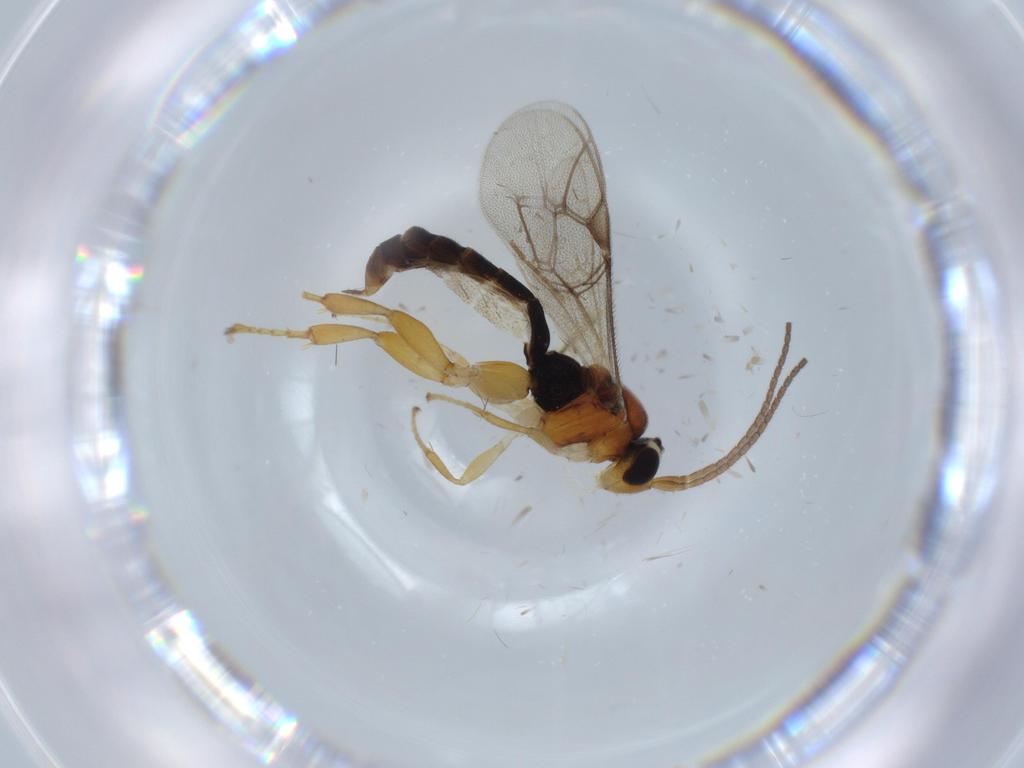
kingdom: Animalia
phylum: Arthropoda
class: Insecta
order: Hymenoptera
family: Ichneumonidae
